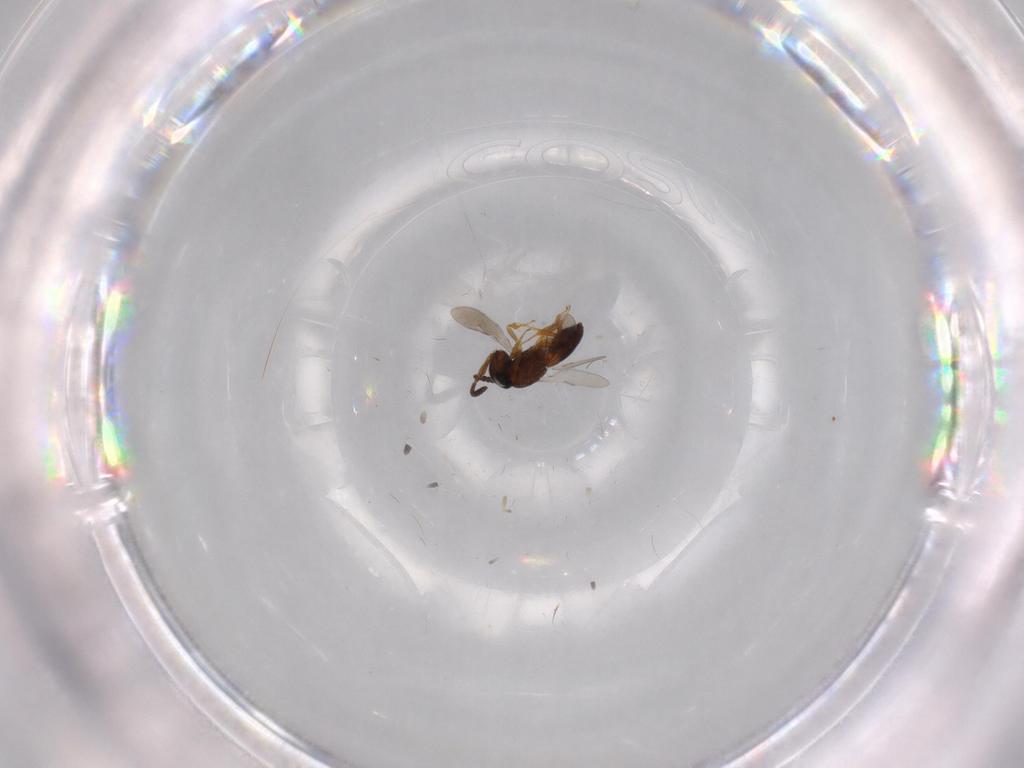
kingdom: Animalia
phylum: Arthropoda
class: Insecta
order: Hymenoptera
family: Scelionidae
